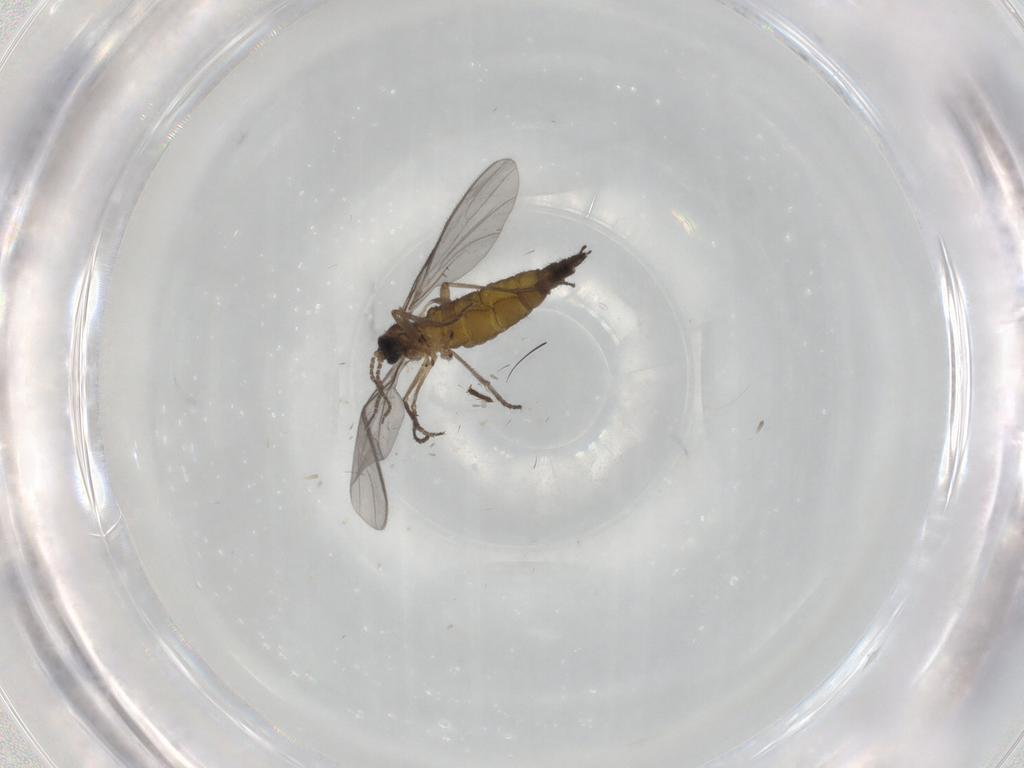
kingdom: Animalia
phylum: Arthropoda
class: Insecta
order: Diptera
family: Sciaridae
